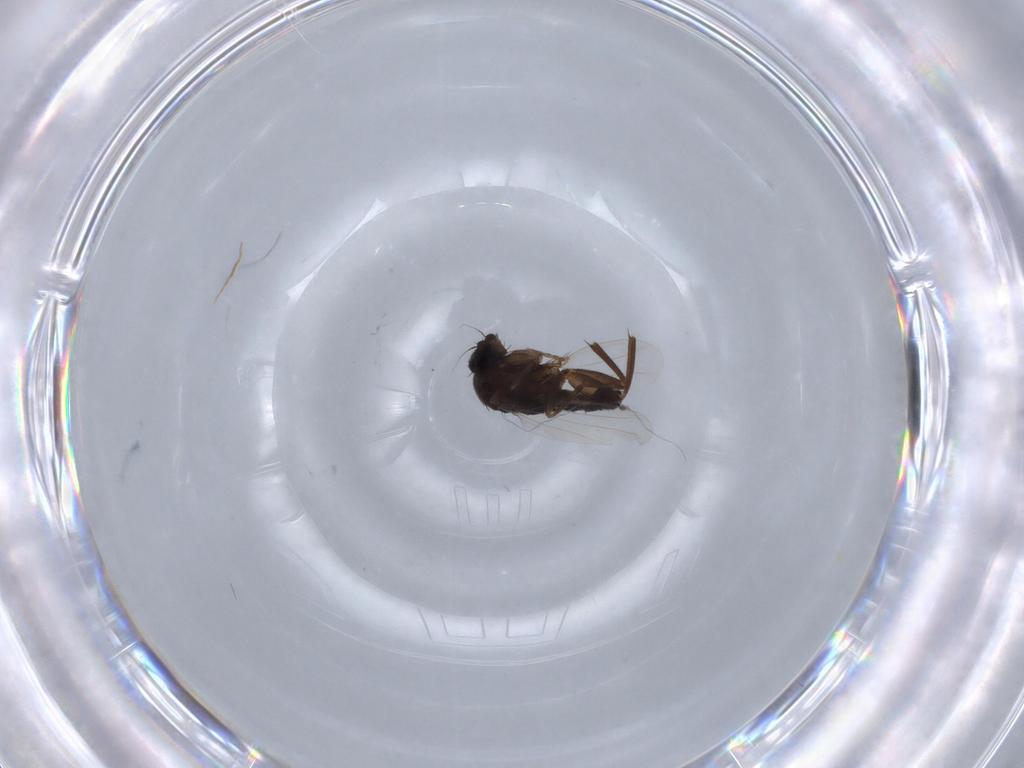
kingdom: Animalia
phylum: Arthropoda
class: Insecta
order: Diptera
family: Phoridae
